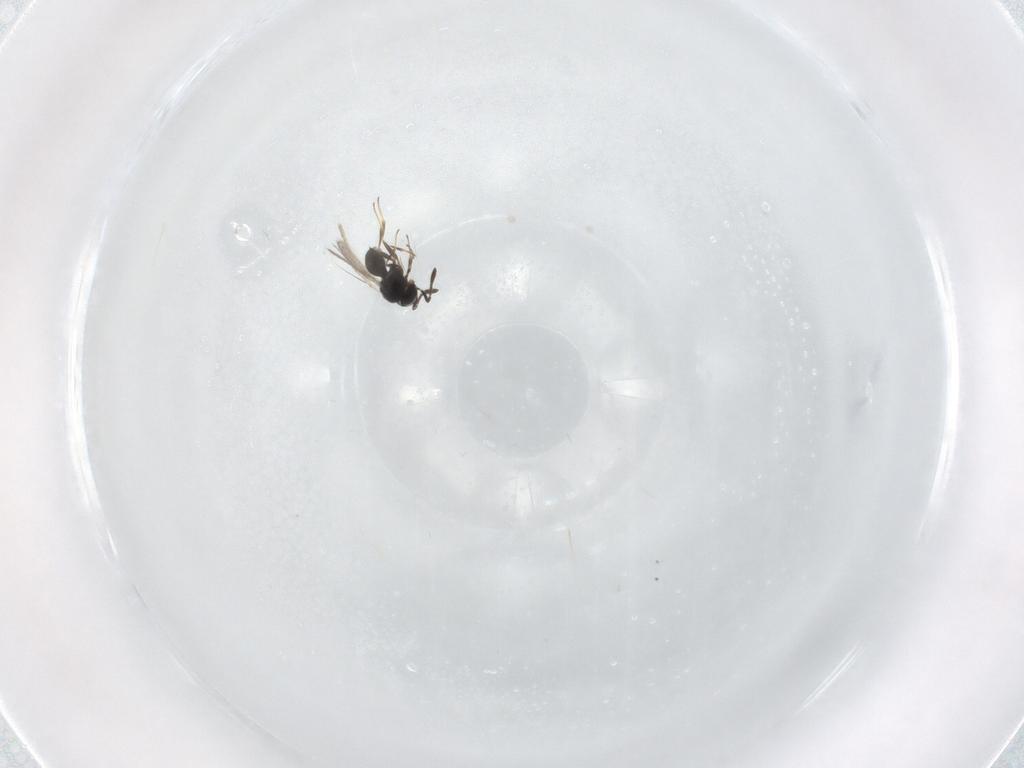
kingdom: Animalia
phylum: Arthropoda
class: Insecta
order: Hymenoptera
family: Scelionidae
